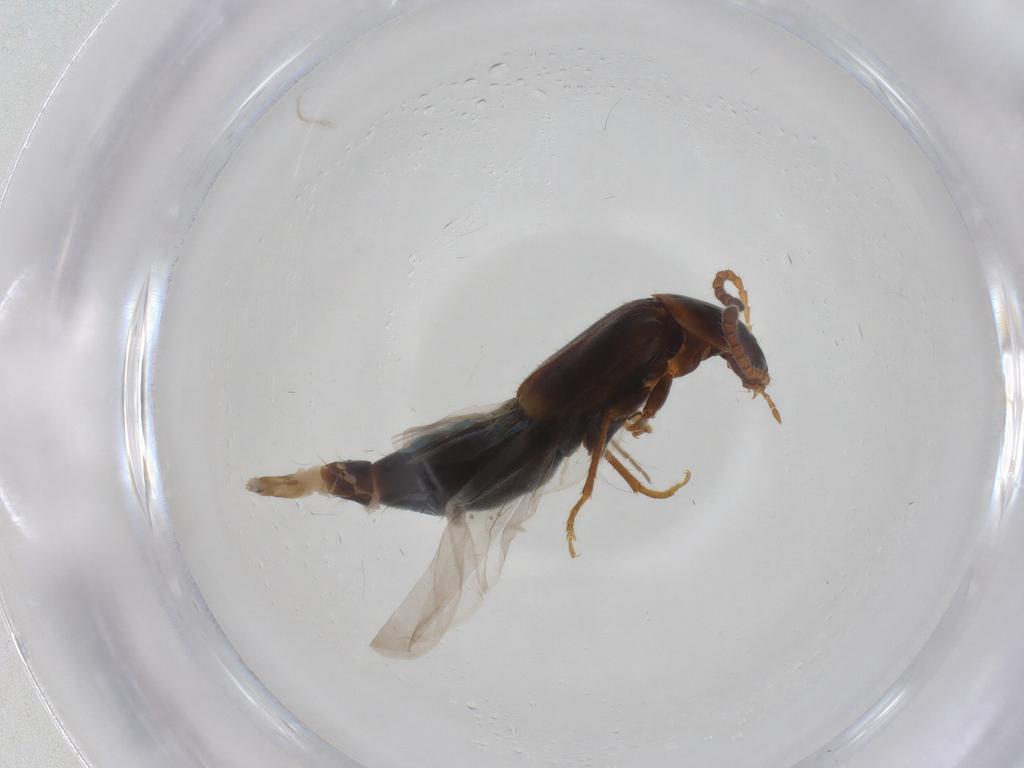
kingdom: Animalia
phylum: Arthropoda
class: Insecta
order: Coleoptera
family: Staphylinidae
